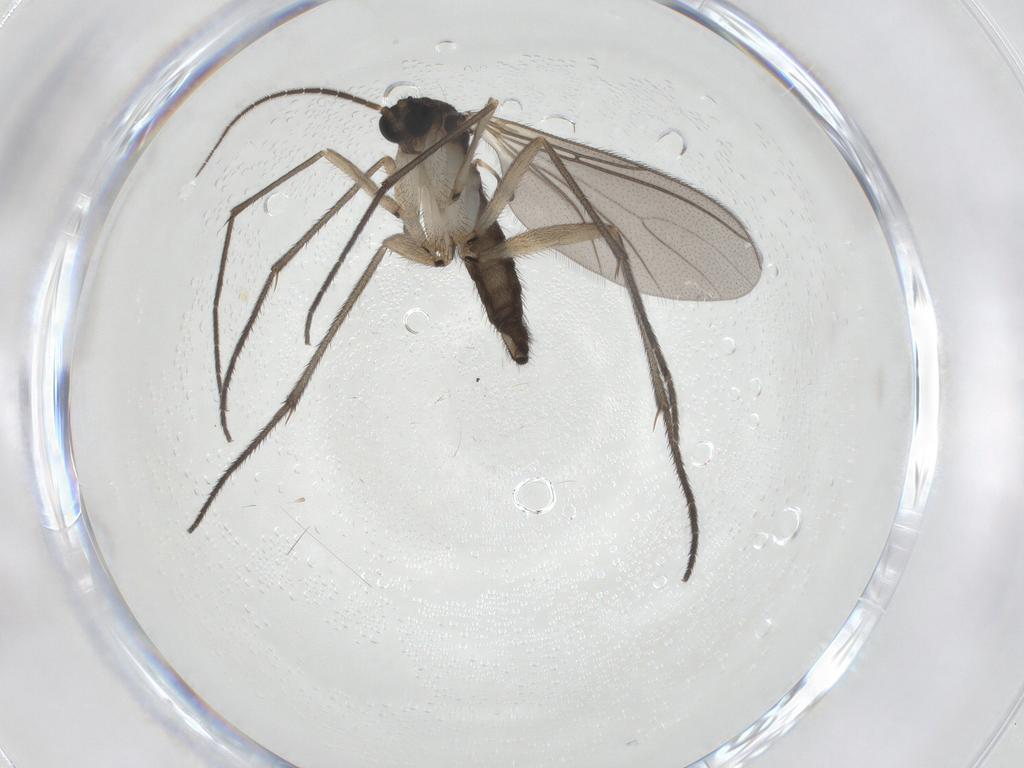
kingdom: Animalia
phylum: Arthropoda
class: Insecta
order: Diptera
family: Sciaridae
